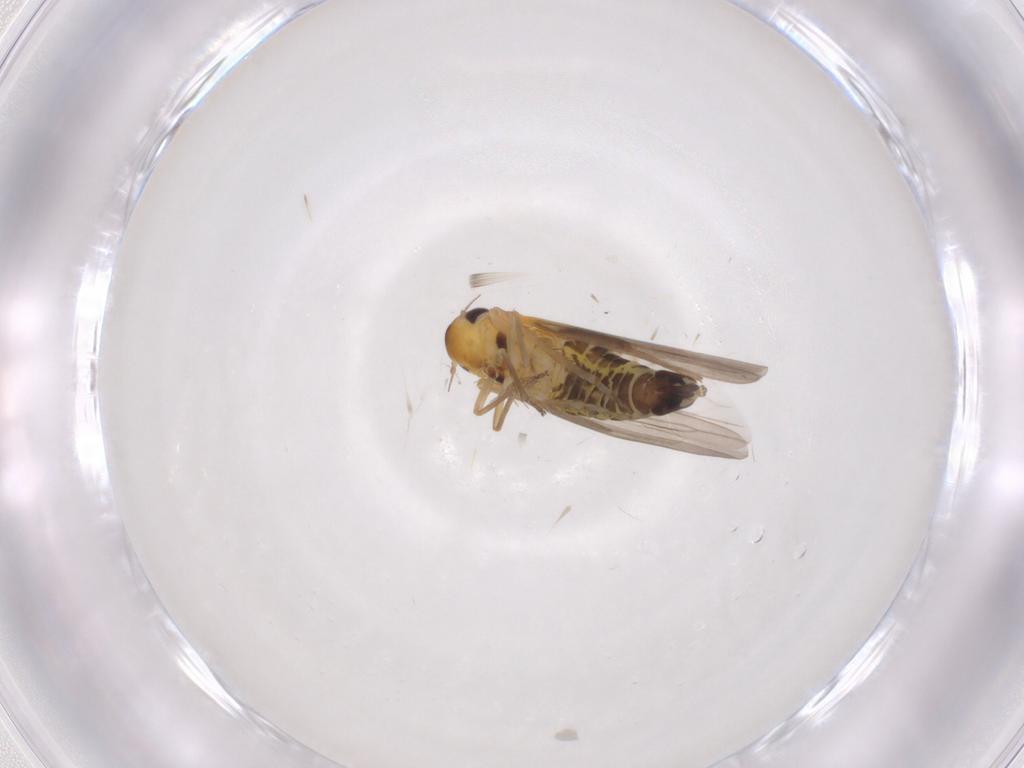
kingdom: Animalia
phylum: Arthropoda
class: Insecta
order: Hemiptera
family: Cicadellidae
